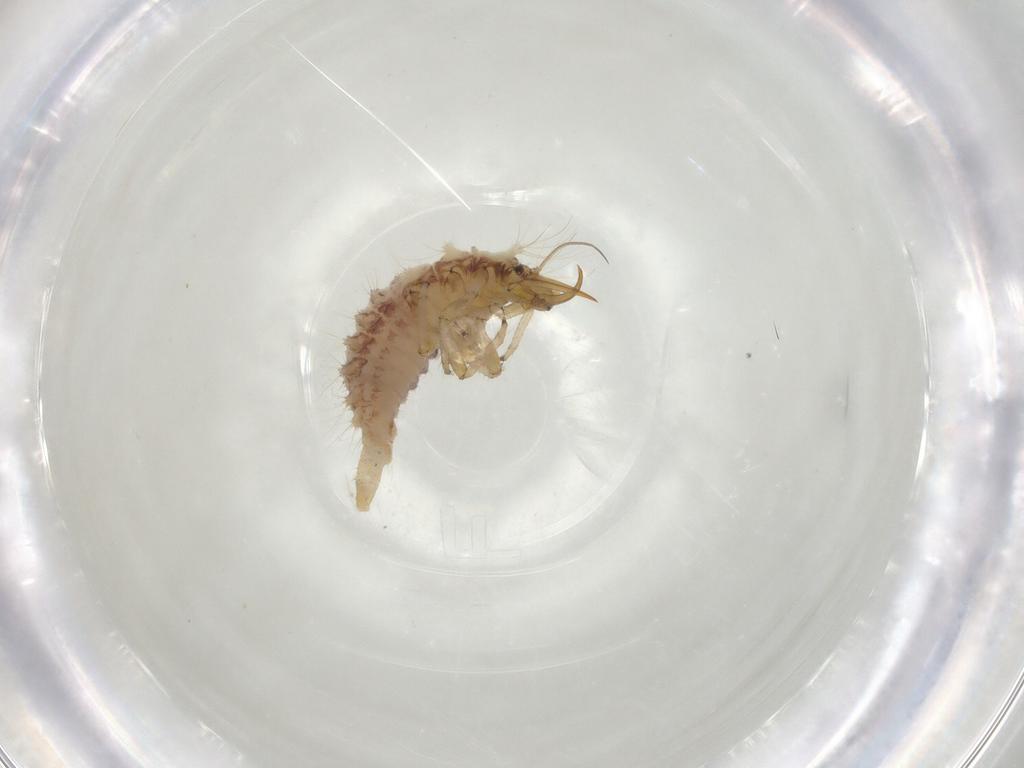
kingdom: Animalia
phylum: Arthropoda
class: Insecta
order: Neuroptera
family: Chrysopidae
